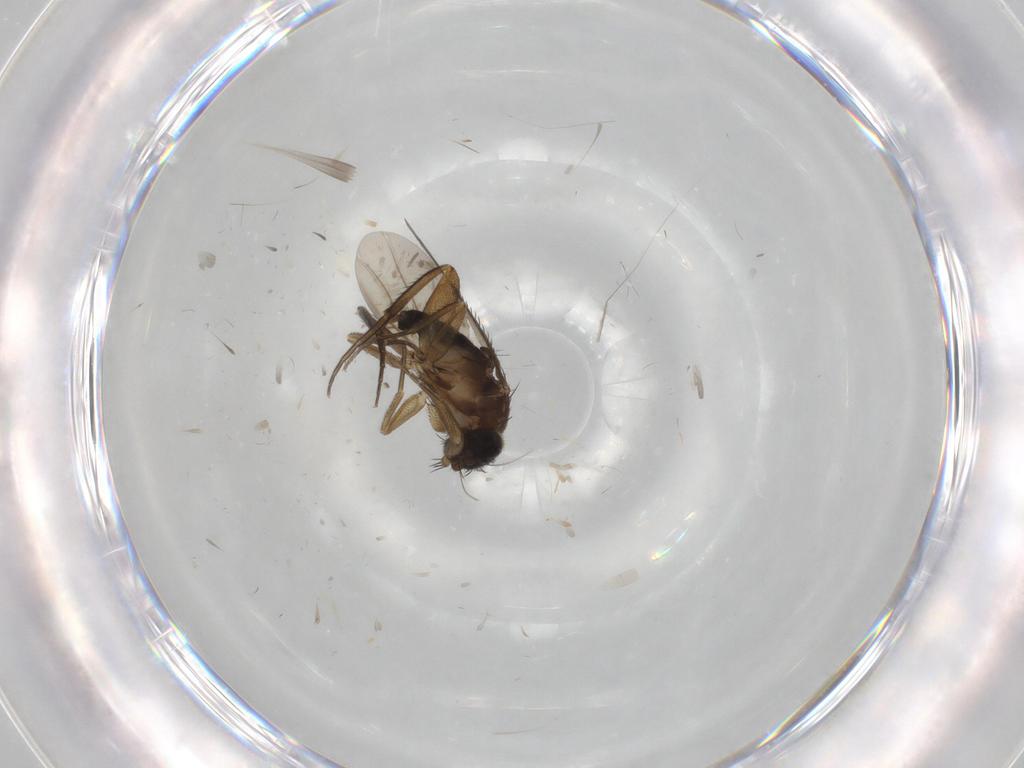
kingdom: Animalia
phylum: Arthropoda
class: Insecta
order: Diptera
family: Phoridae
